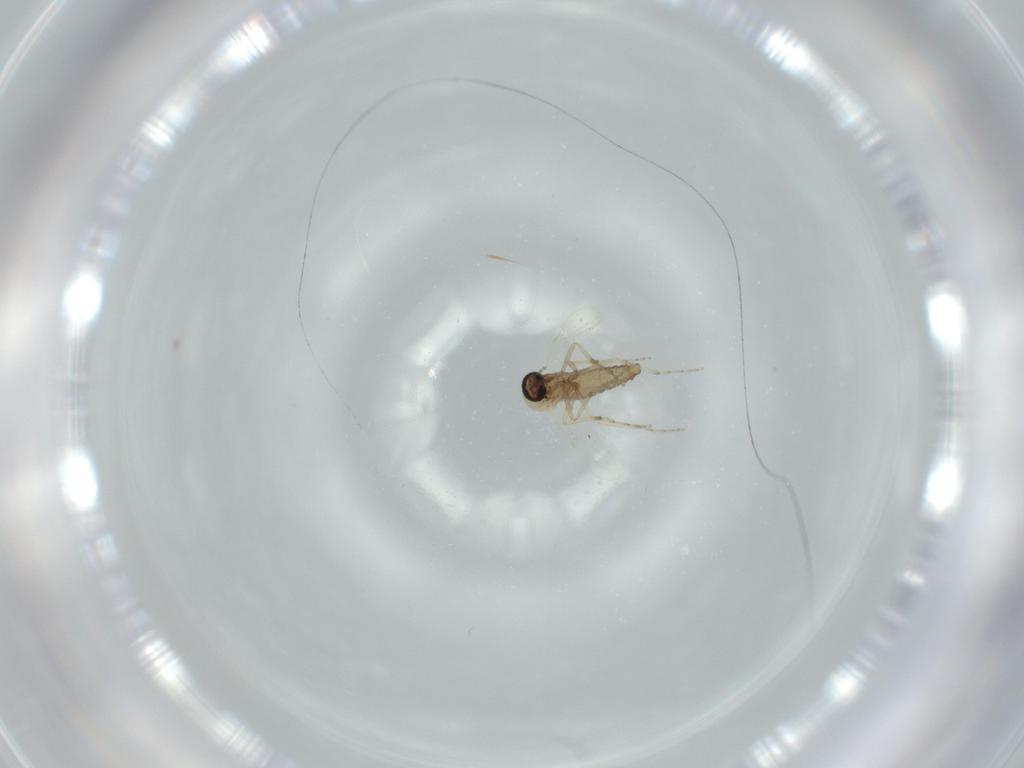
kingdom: Animalia
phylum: Arthropoda
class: Insecta
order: Diptera
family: Ceratopogonidae
